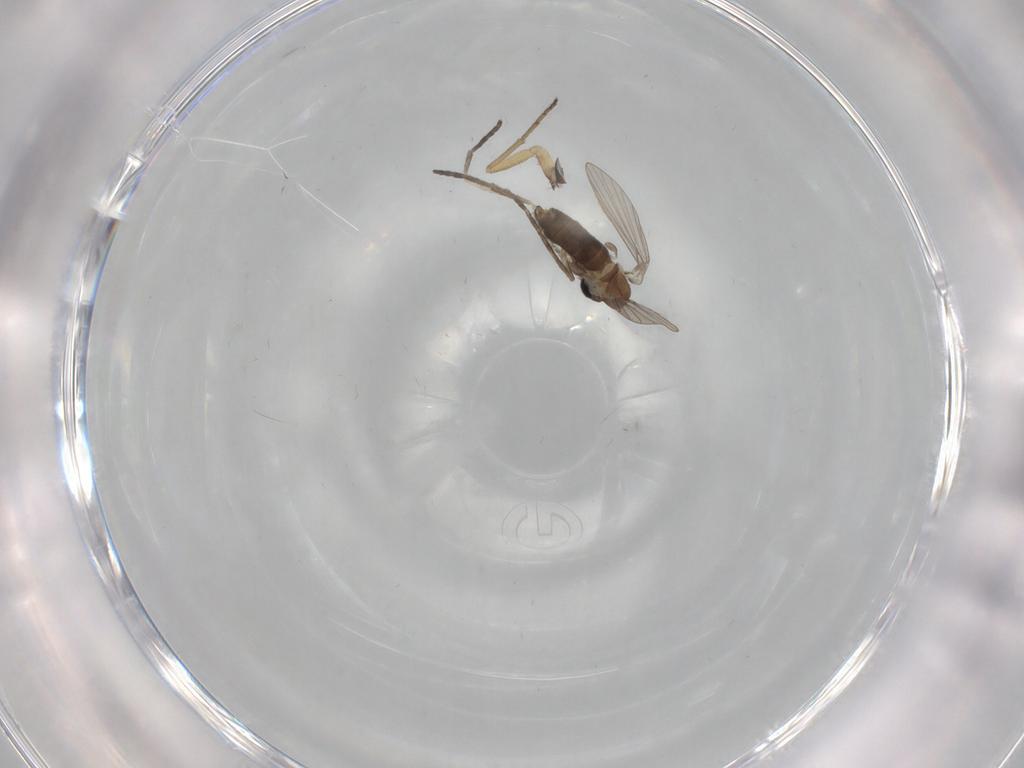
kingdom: Animalia
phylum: Arthropoda
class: Insecta
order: Diptera
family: Dolichopodidae
